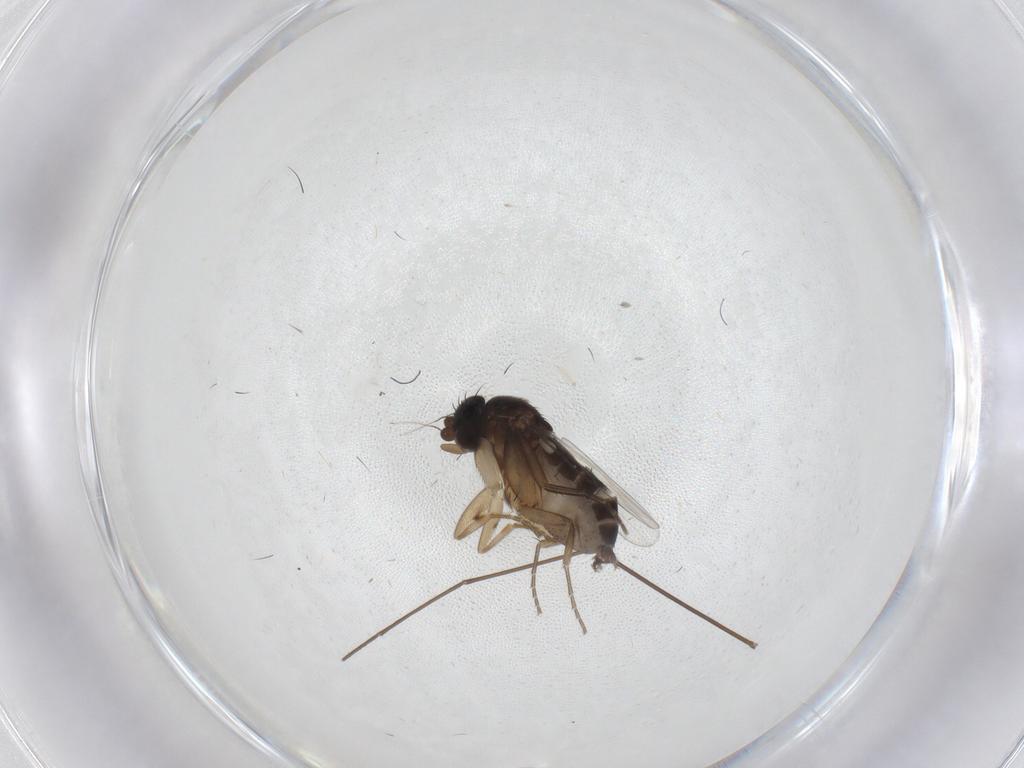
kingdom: Animalia
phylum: Arthropoda
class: Insecta
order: Diptera
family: Phoridae
